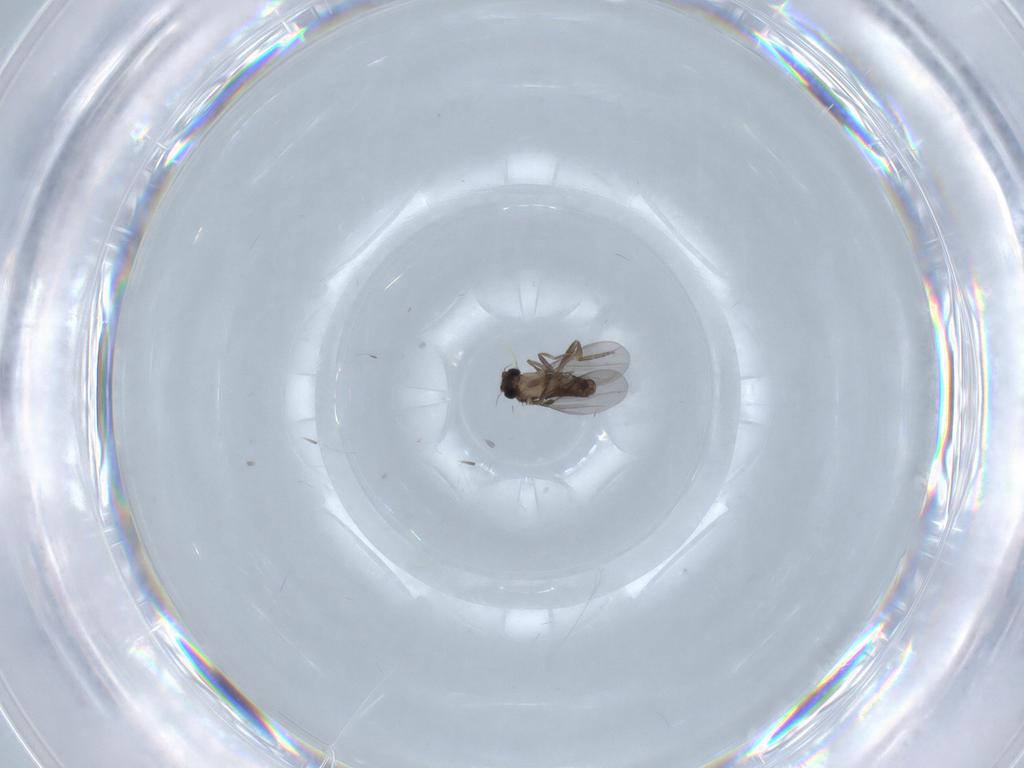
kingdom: Animalia
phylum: Arthropoda
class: Insecta
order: Diptera
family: Cecidomyiidae
